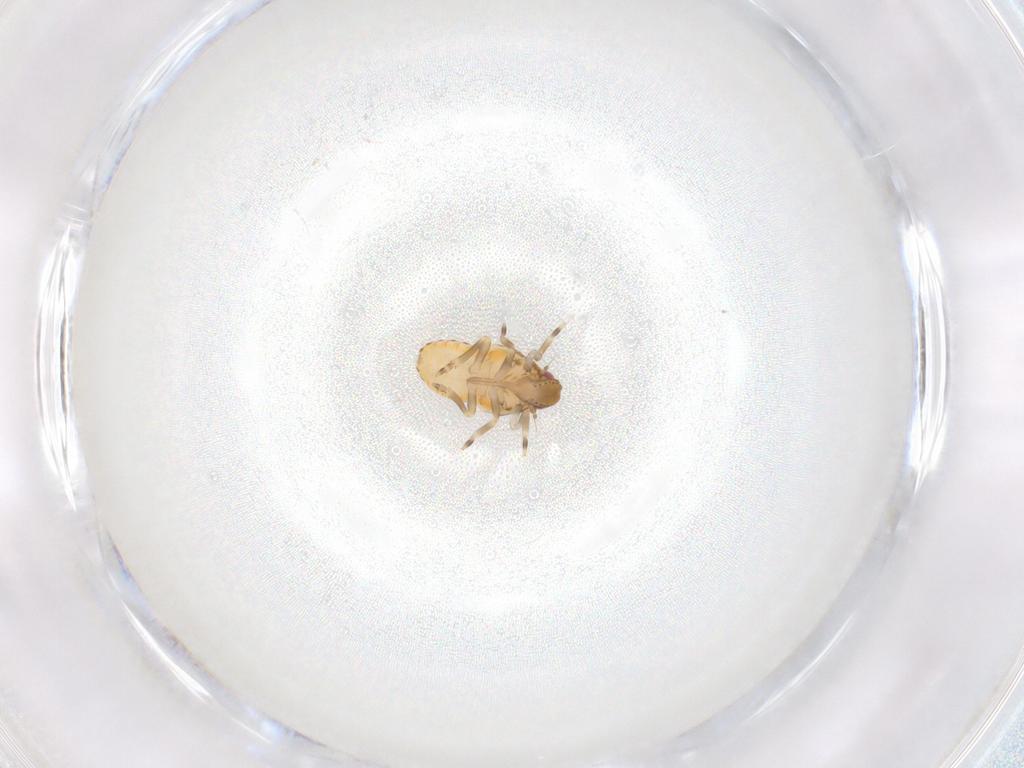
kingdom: Animalia
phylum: Arthropoda
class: Insecta
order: Hemiptera
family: Flatidae
